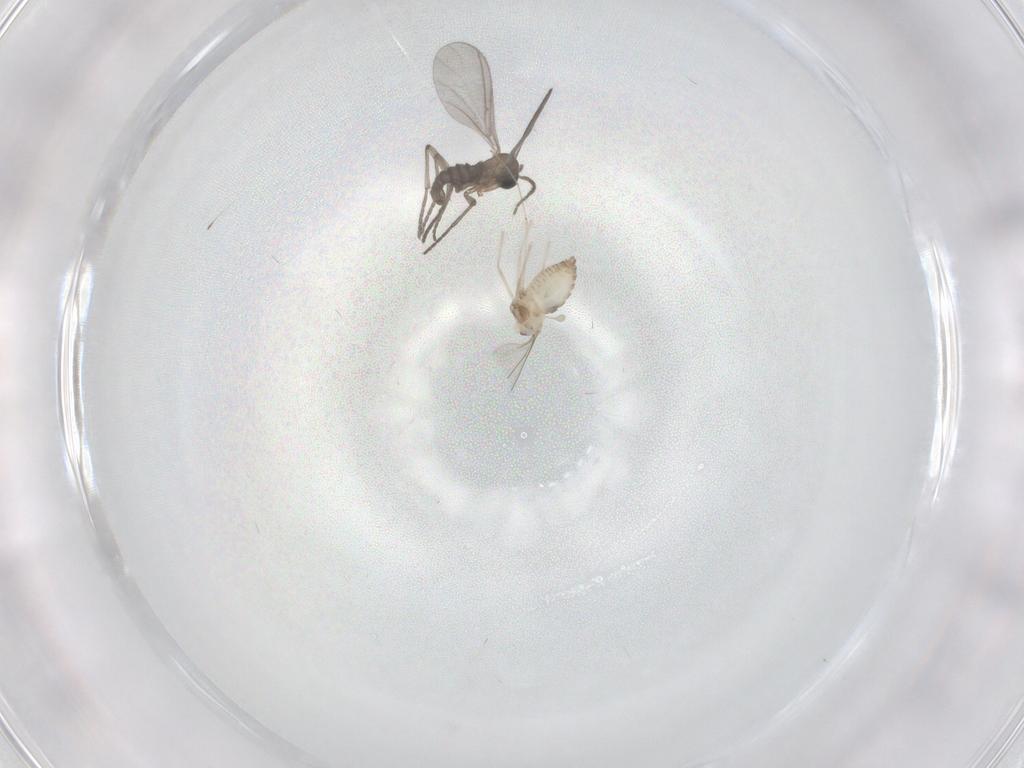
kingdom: Animalia
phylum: Arthropoda
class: Insecta
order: Diptera
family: Cecidomyiidae
